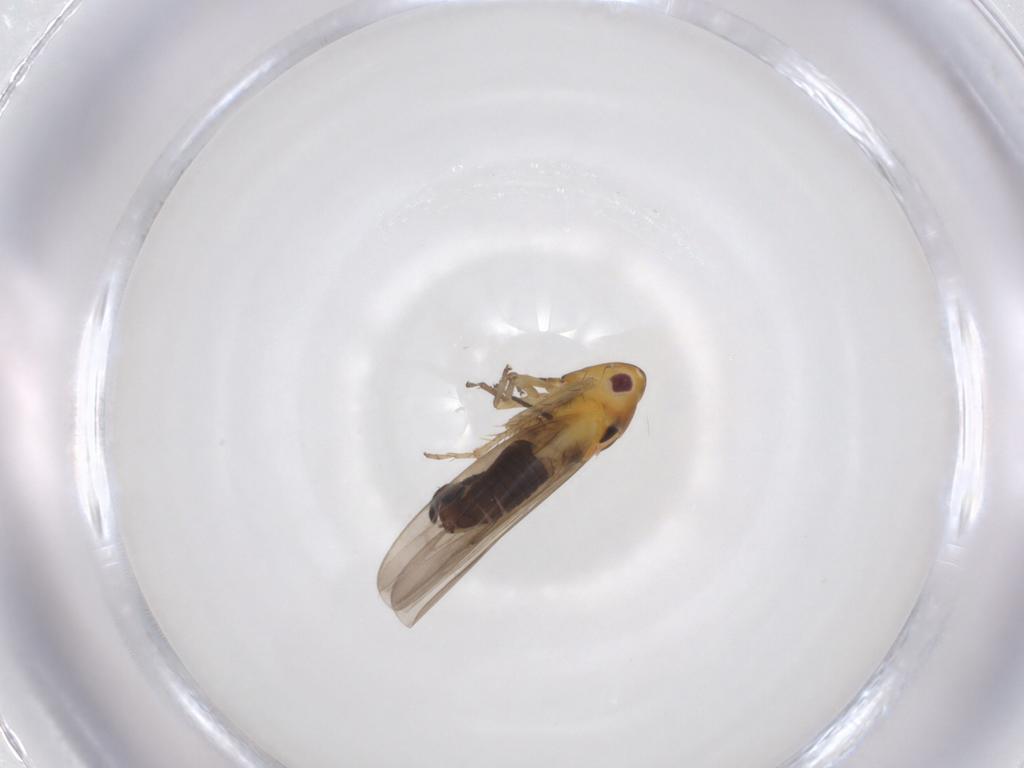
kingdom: Animalia
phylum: Arthropoda
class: Insecta
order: Hemiptera
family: Cicadellidae
